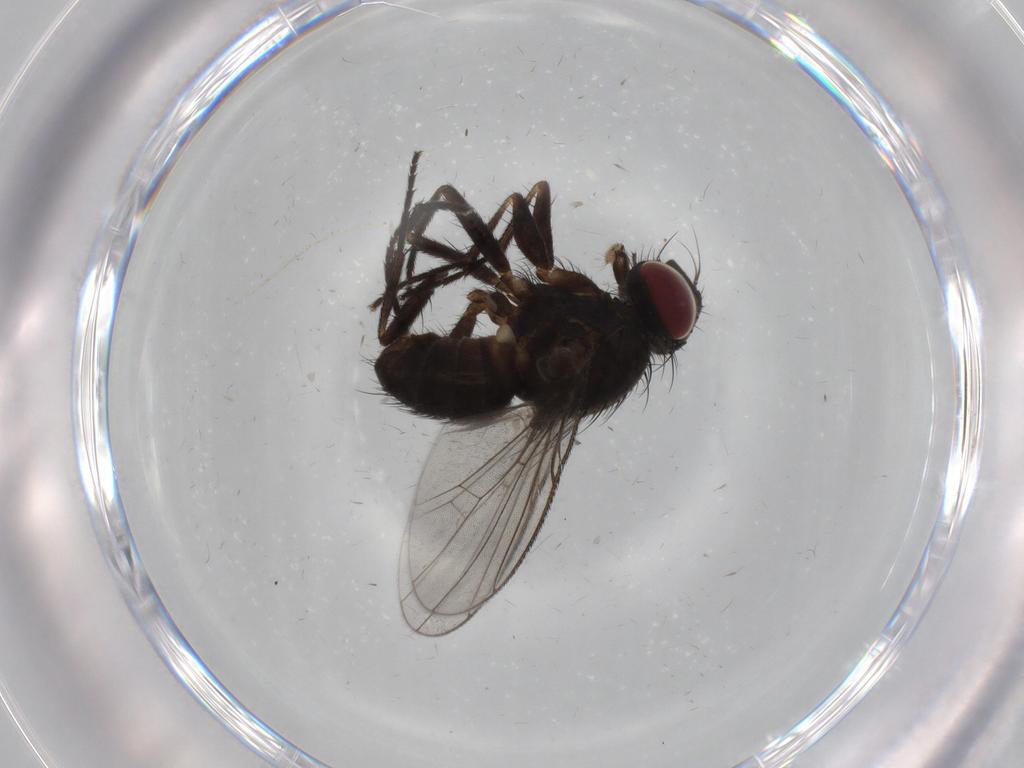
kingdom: Animalia
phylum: Arthropoda
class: Insecta
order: Diptera
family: Muscidae
